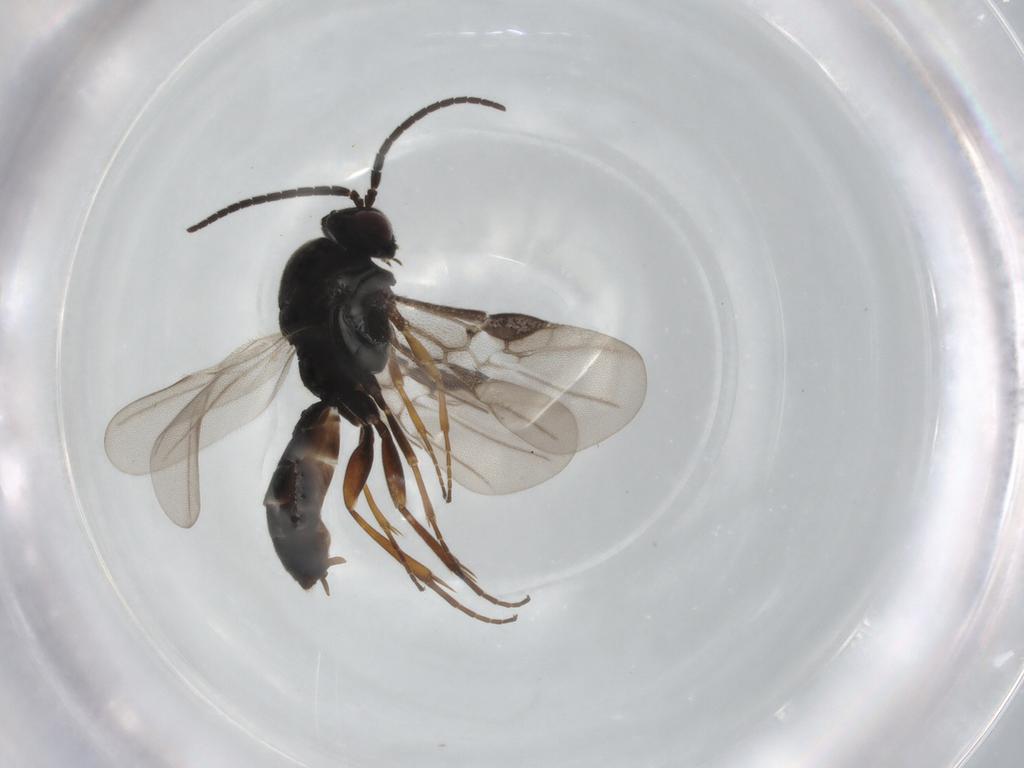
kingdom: Animalia
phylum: Arthropoda
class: Insecta
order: Hymenoptera
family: Braconidae
